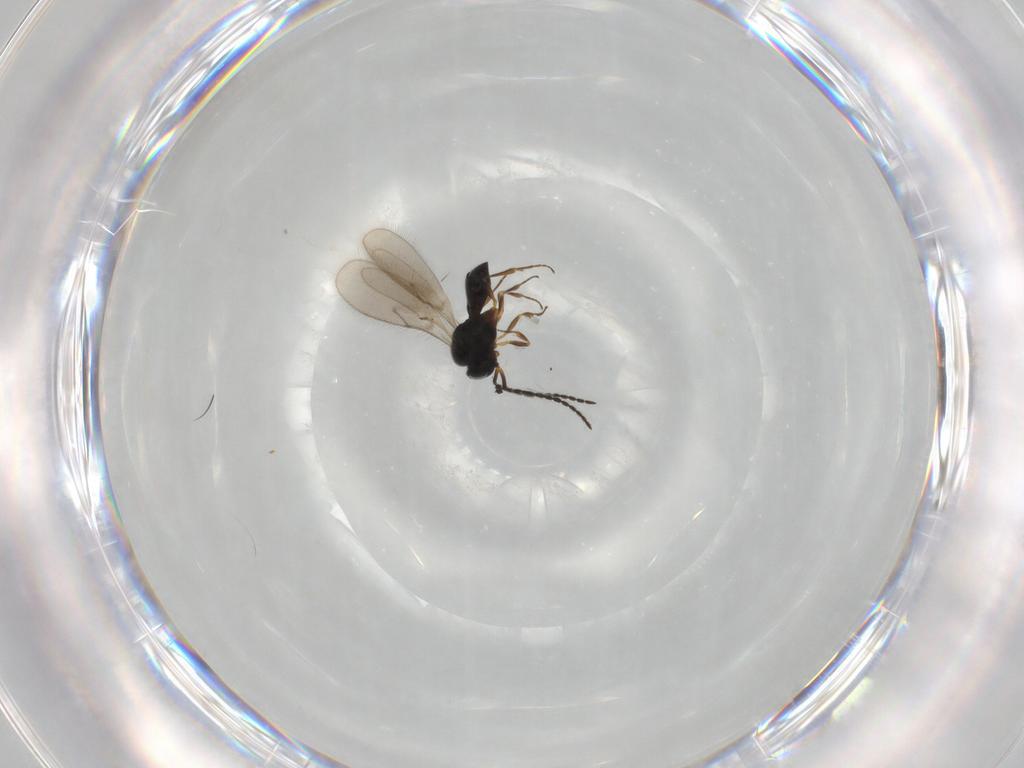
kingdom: Animalia
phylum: Arthropoda
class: Insecta
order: Hymenoptera
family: Scelionidae
